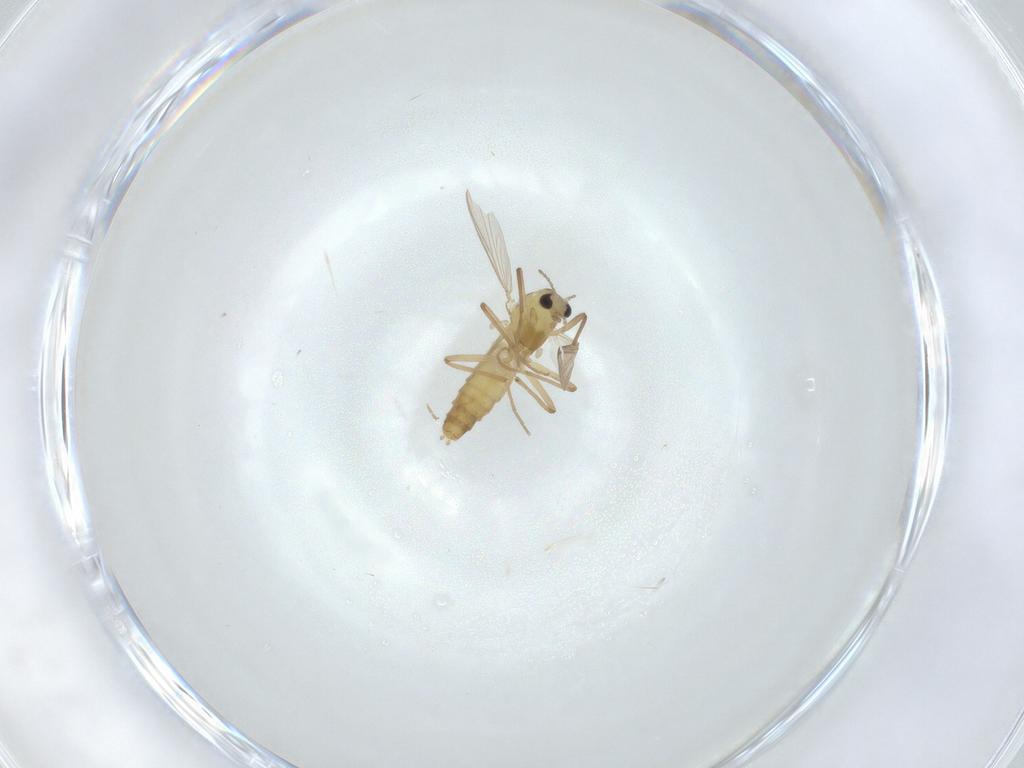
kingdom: Animalia
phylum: Arthropoda
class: Insecta
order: Diptera
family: Chironomidae
